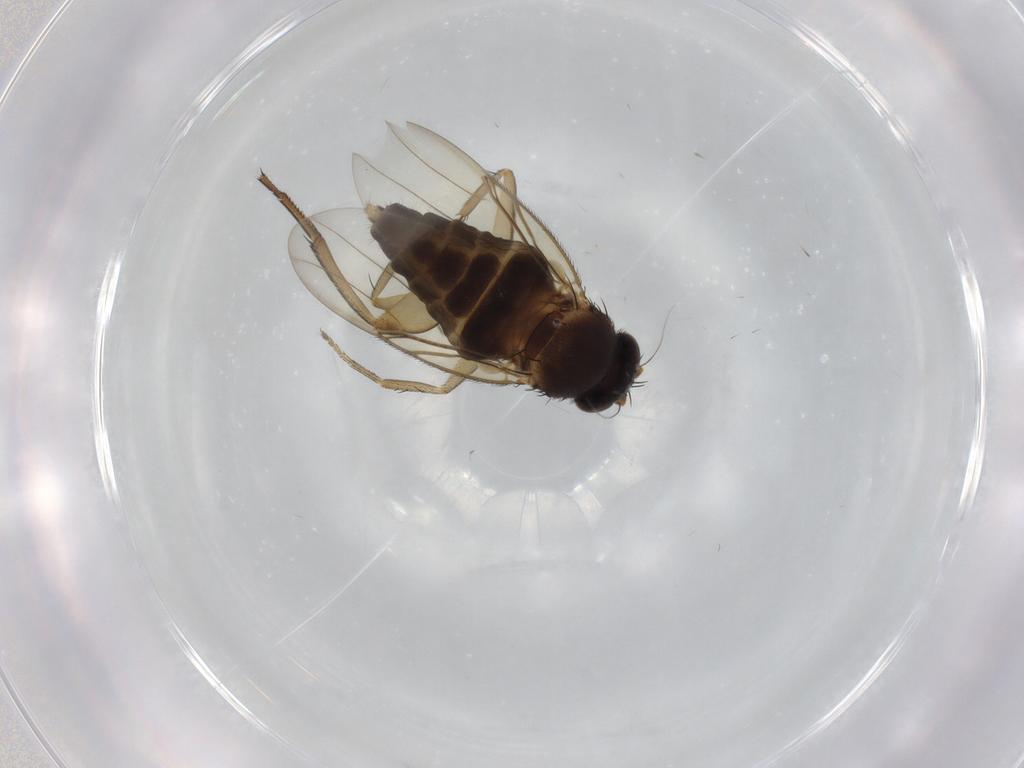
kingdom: Animalia
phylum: Arthropoda
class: Insecta
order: Diptera
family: Phoridae
